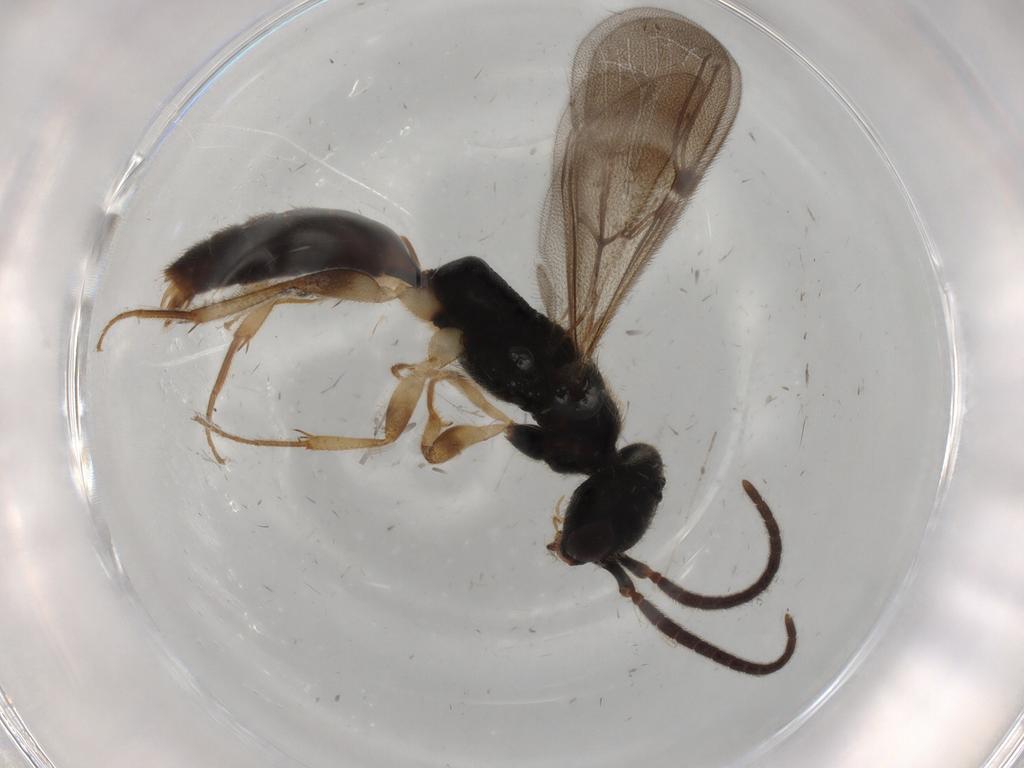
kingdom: Animalia
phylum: Arthropoda
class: Insecta
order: Hymenoptera
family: Bethylidae
